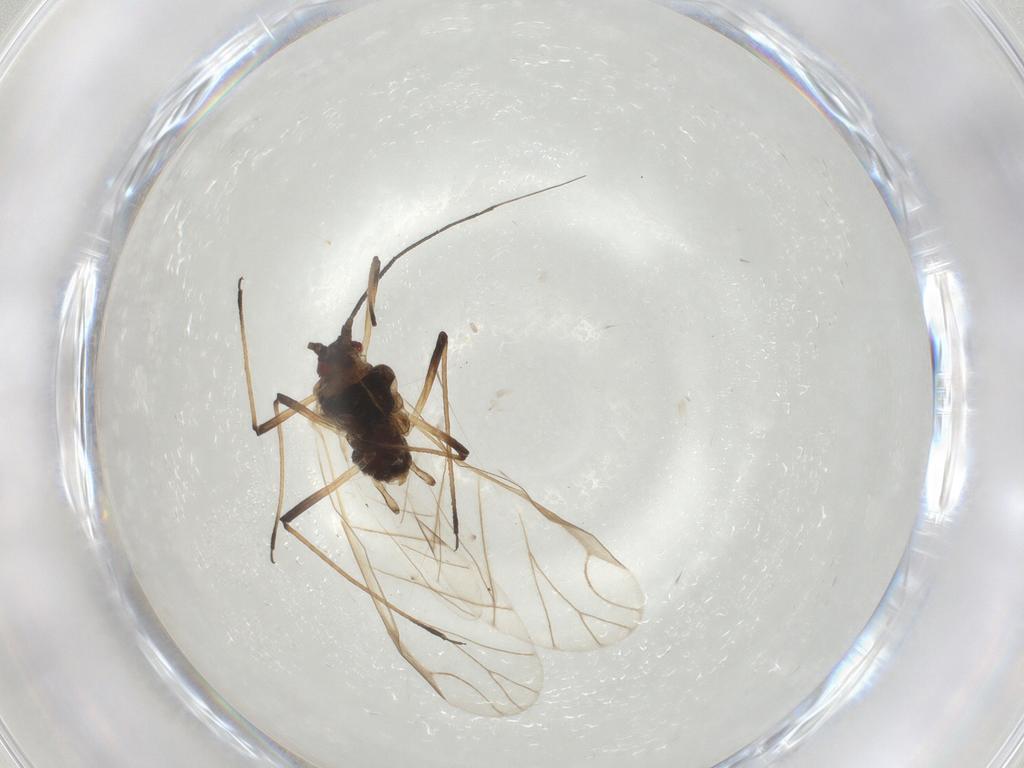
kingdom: Animalia
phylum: Arthropoda
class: Insecta
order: Hemiptera
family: Aphididae
